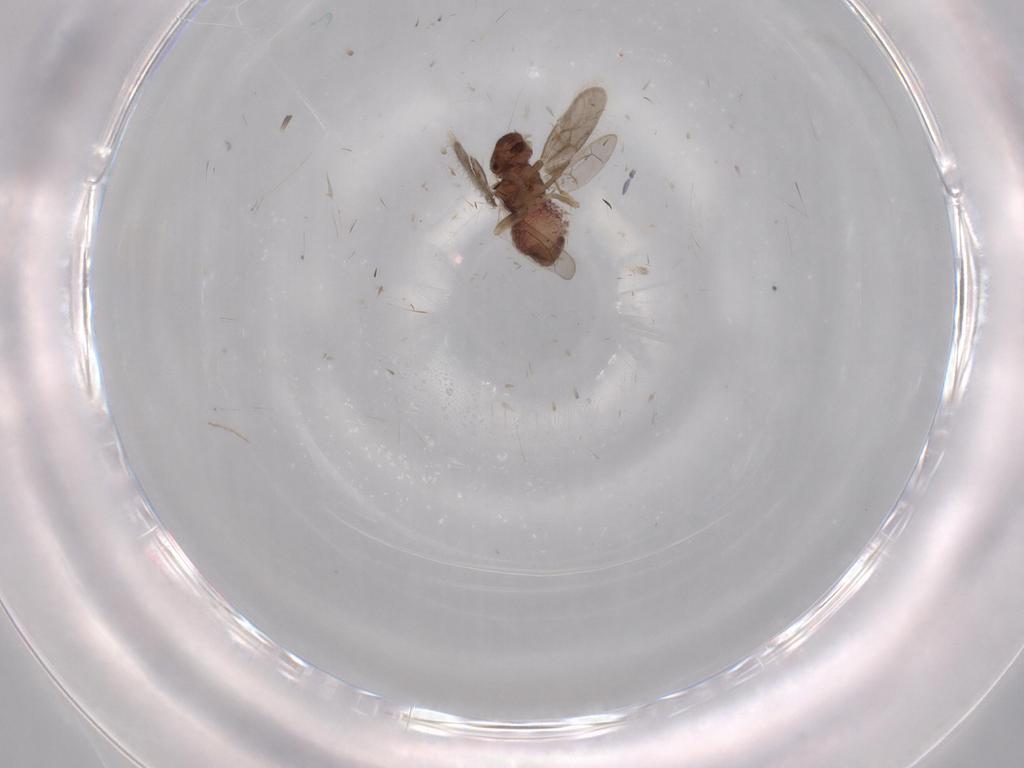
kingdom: Animalia
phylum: Arthropoda
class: Insecta
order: Psocodea
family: Archipsocidae
